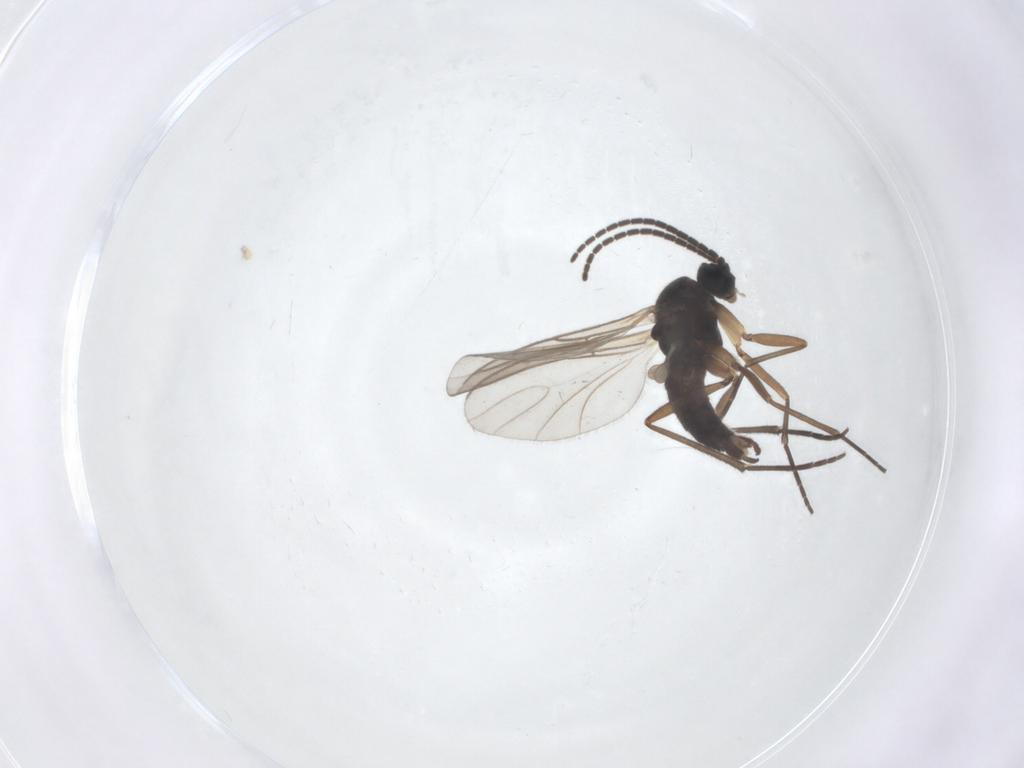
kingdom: Animalia
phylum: Arthropoda
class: Insecta
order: Diptera
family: Sciaridae
